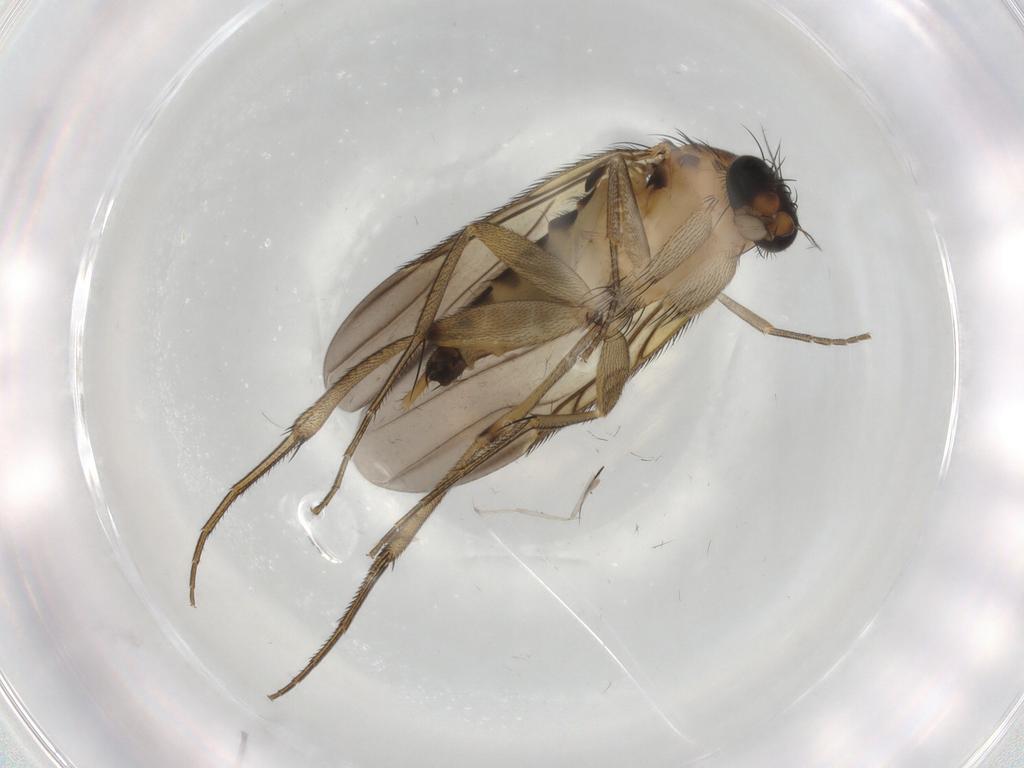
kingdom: Animalia
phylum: Arthropoda
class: Insecta
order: Diptera
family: Phoridae
